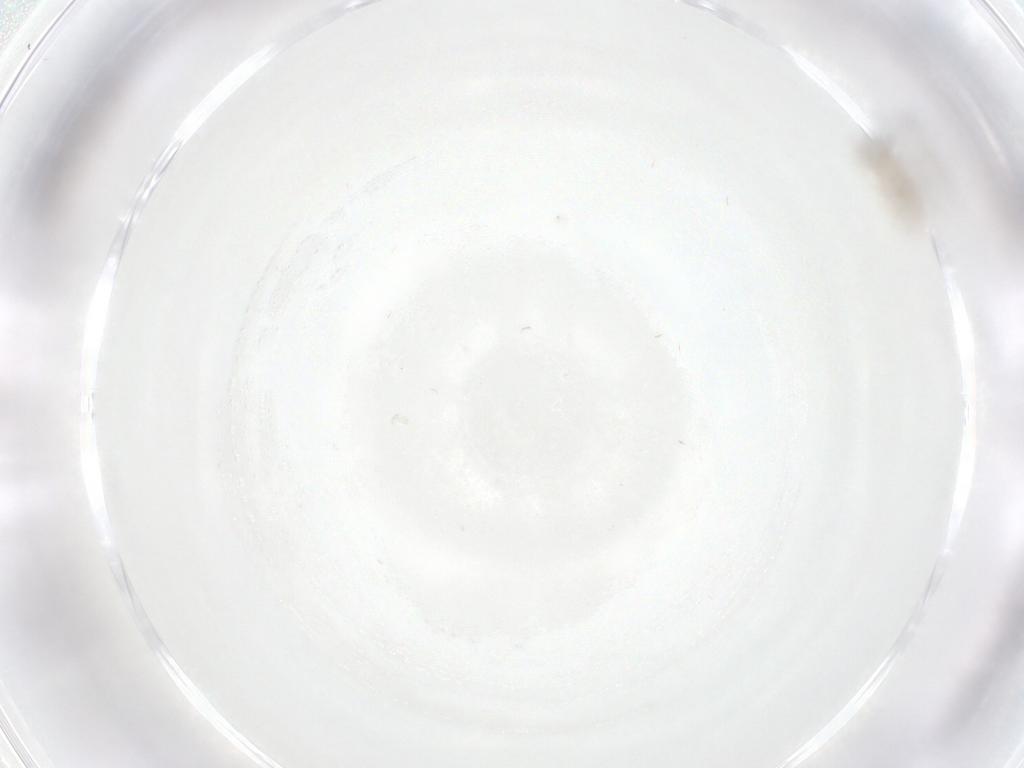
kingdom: Animalia
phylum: Arthropoda
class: Insecta
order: Diptera
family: Cecidomyiidae
